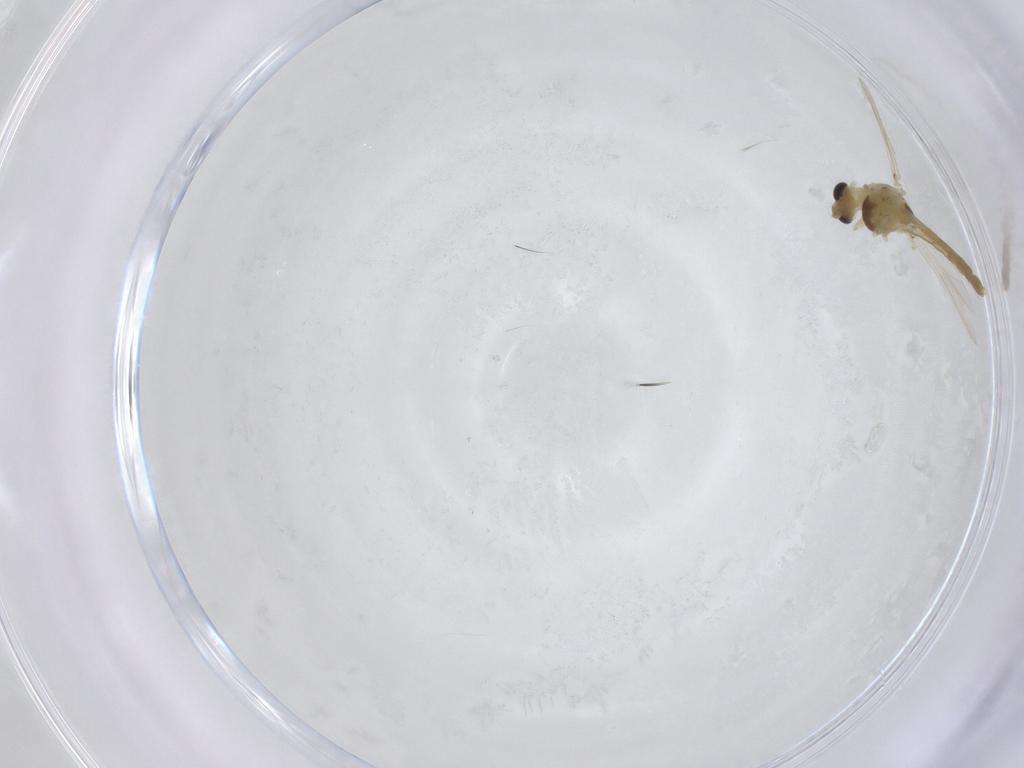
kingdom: Animalia
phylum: Arthropoda
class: Insecta
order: Diptera
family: Chironomidae
